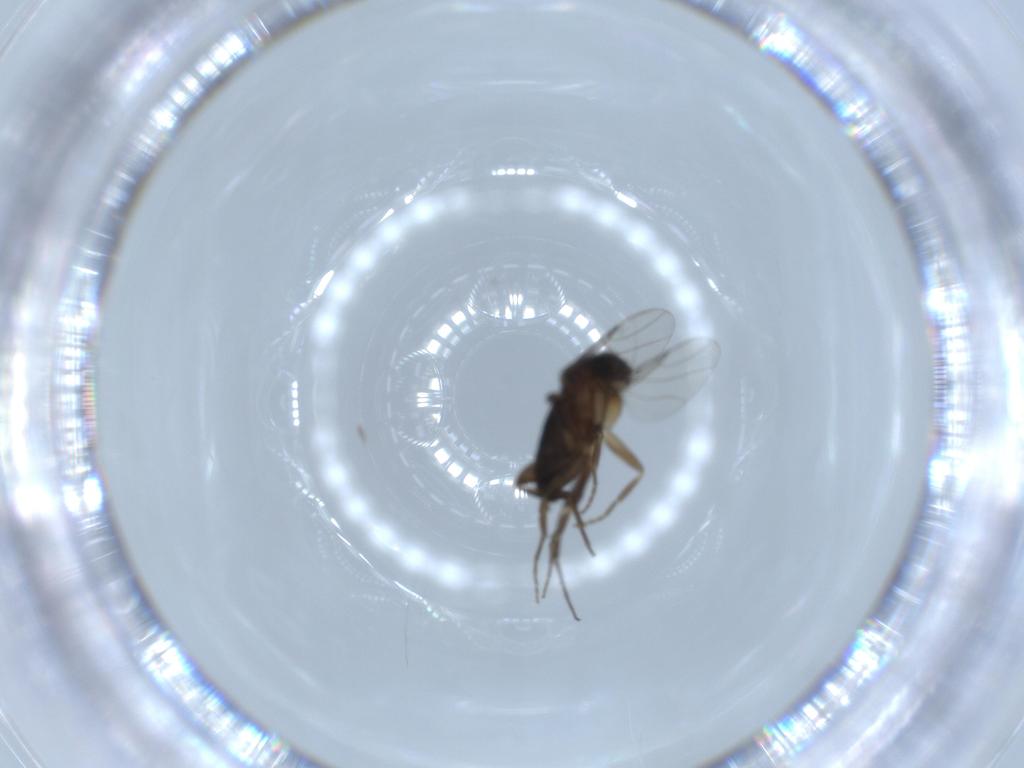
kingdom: Animalia
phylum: Arthropoda
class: Insecta
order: Diptera
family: Phoridae
